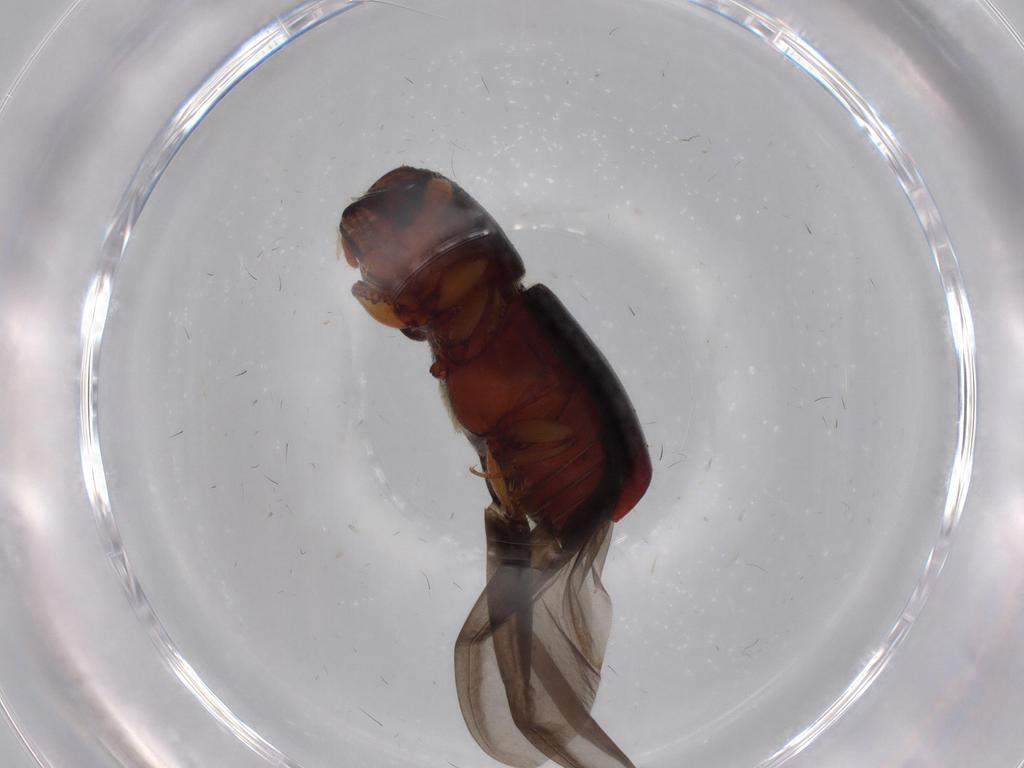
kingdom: Animalia
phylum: Arthropoda
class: Insecta
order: Coleoptera
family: Curculionidae
